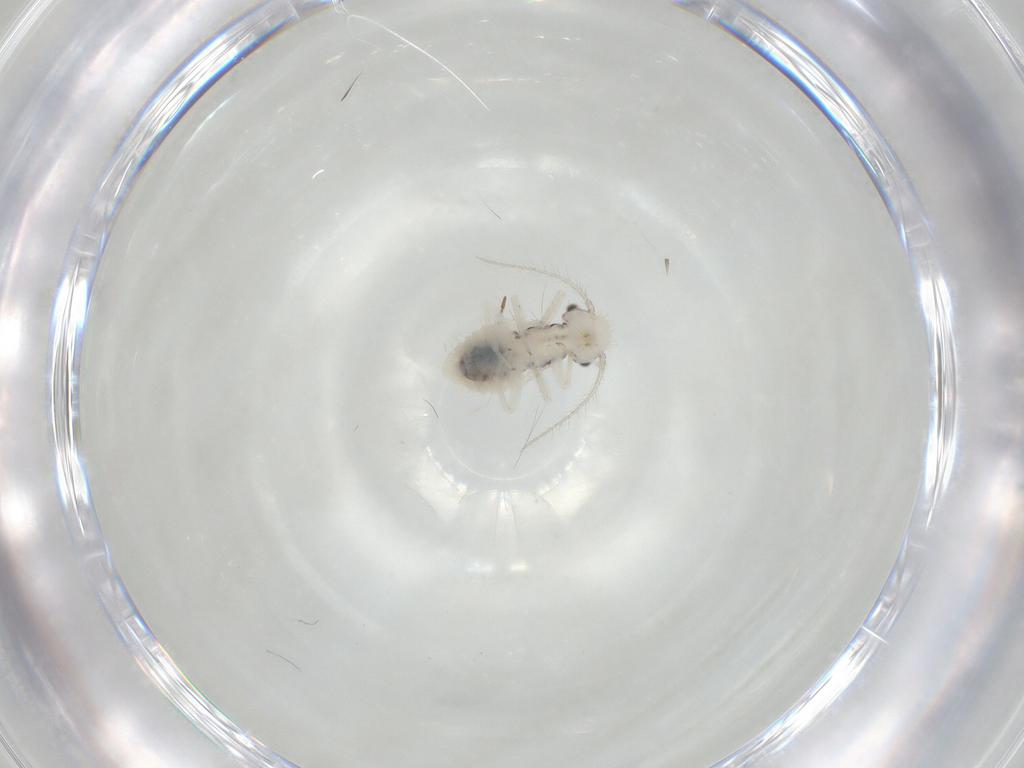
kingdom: Animalia
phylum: Arthropoda
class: Insecta
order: Psocodea
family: Caeciliusidae
